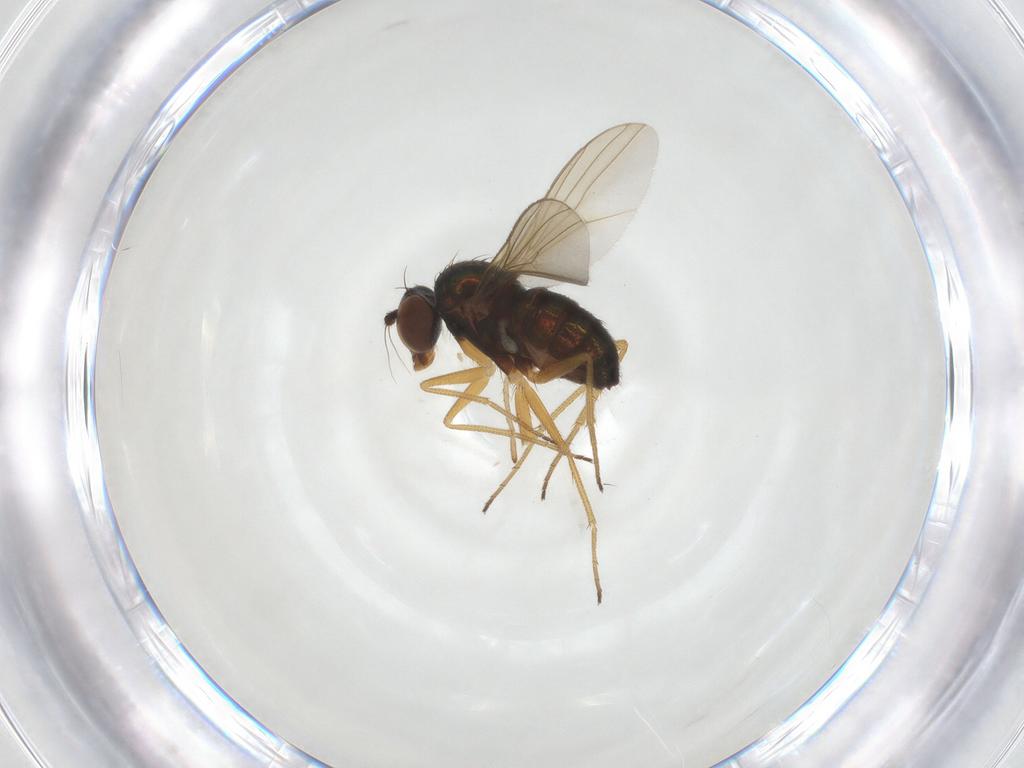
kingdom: Animalia
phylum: Arthropoda
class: Insecta
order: Diptera
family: Dolichopodidae
